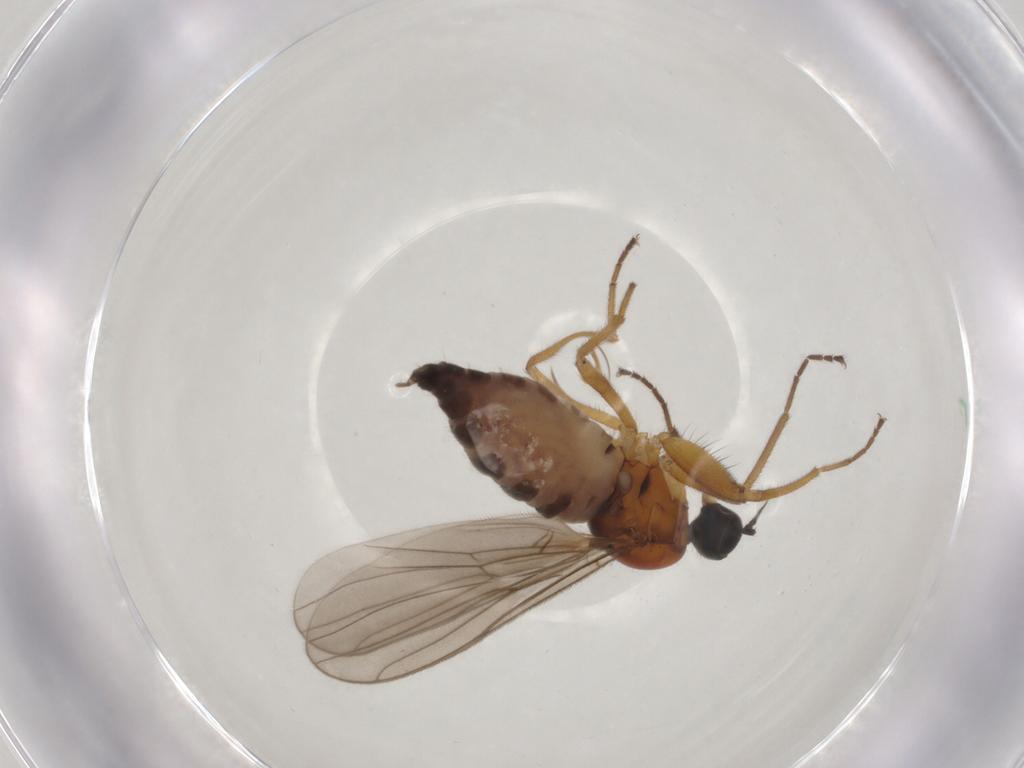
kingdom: Animalia
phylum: Arthropoda
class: Insecta
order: Diptera
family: Hybotidae
